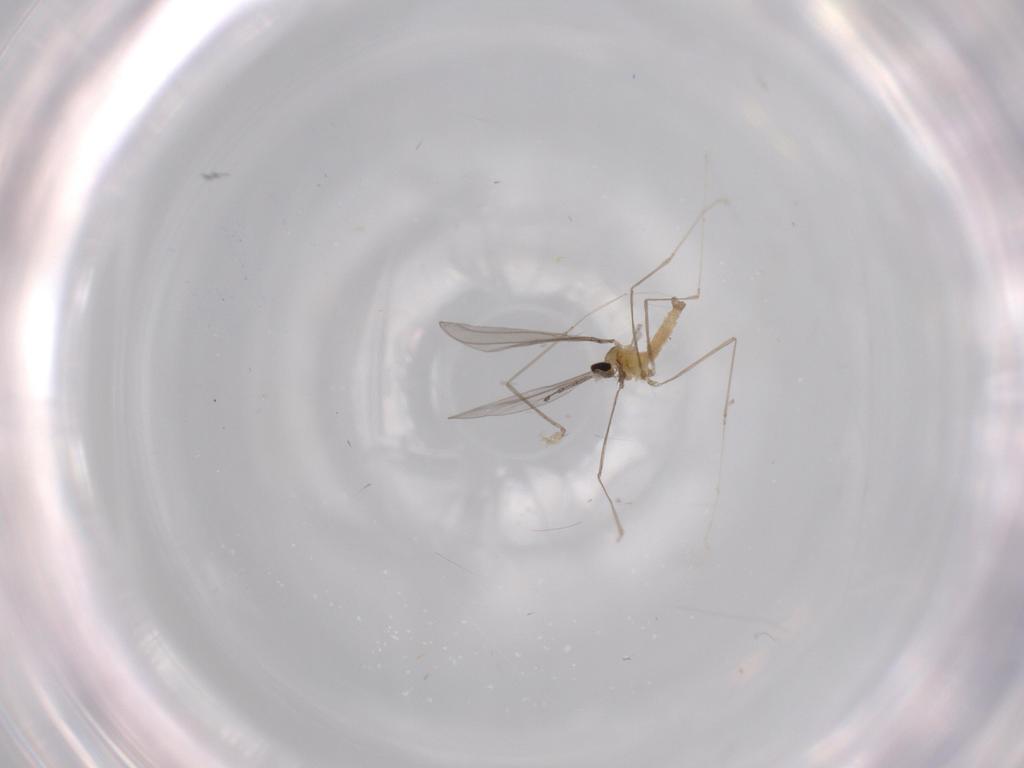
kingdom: Animalia
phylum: Arthropoda
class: Insecta
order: Diptera
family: Cecidomyiidae
